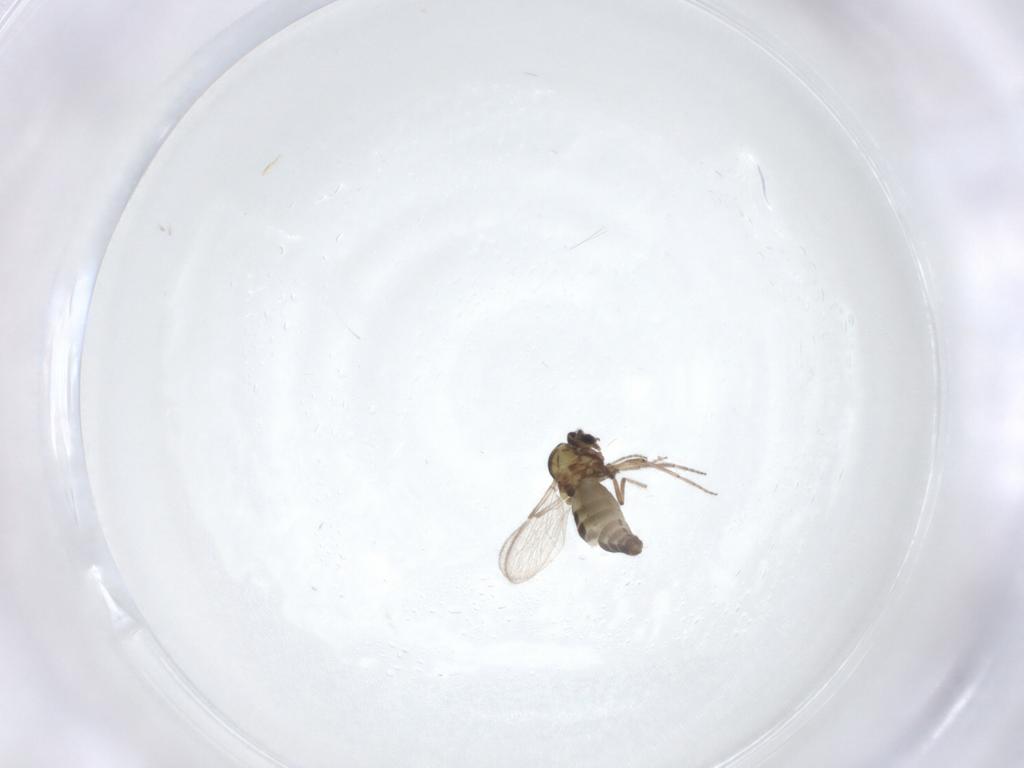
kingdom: Animalia
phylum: Arthropoda
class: Insecta
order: Diptera
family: Ceratopogonidae
